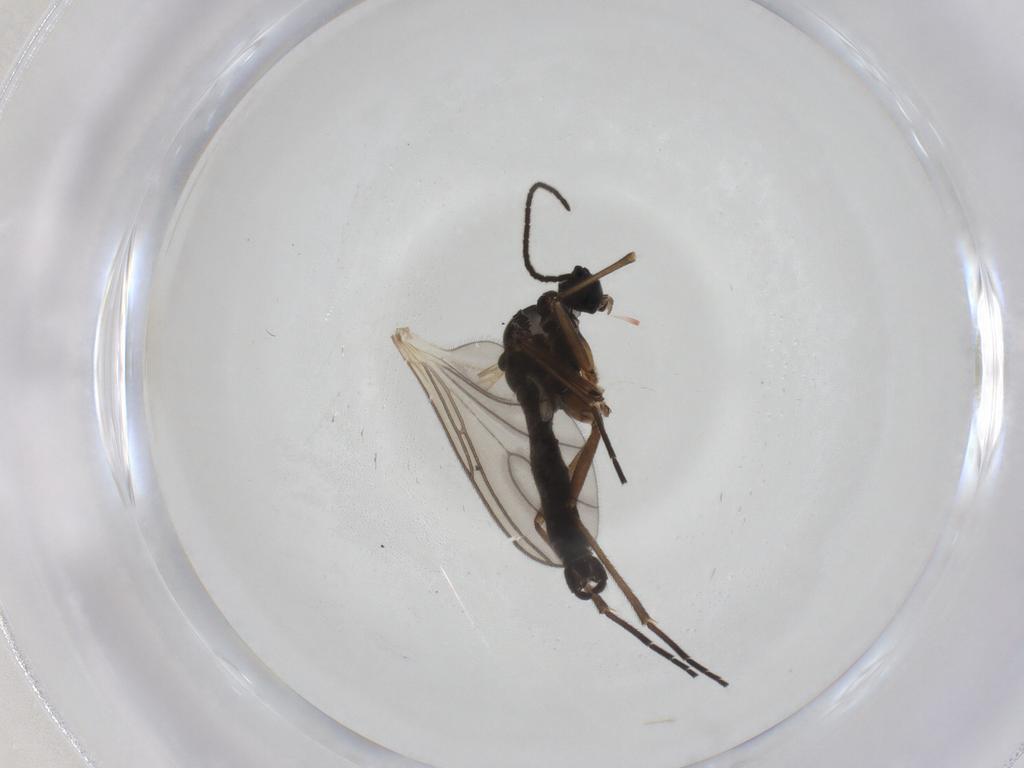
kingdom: Animalia
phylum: Arthropoda
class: Insecta
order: Diptera
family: Sciaridae
